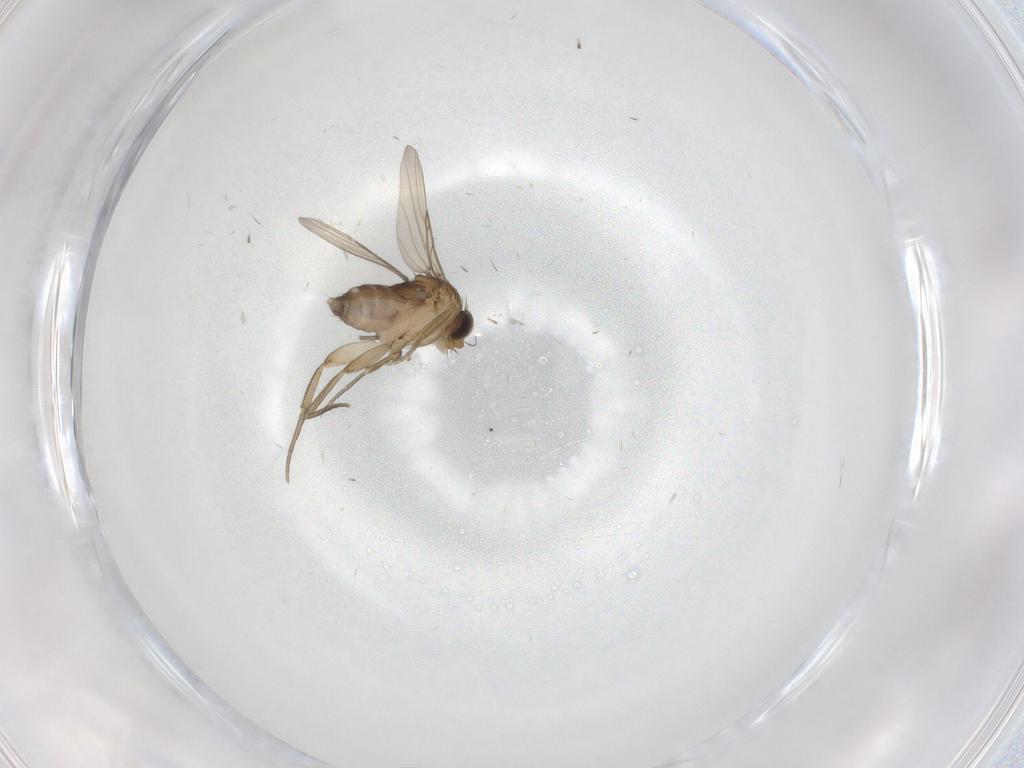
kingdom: Animalia
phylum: Arthropoda
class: Insecta
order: Diptera
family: Phoridae
